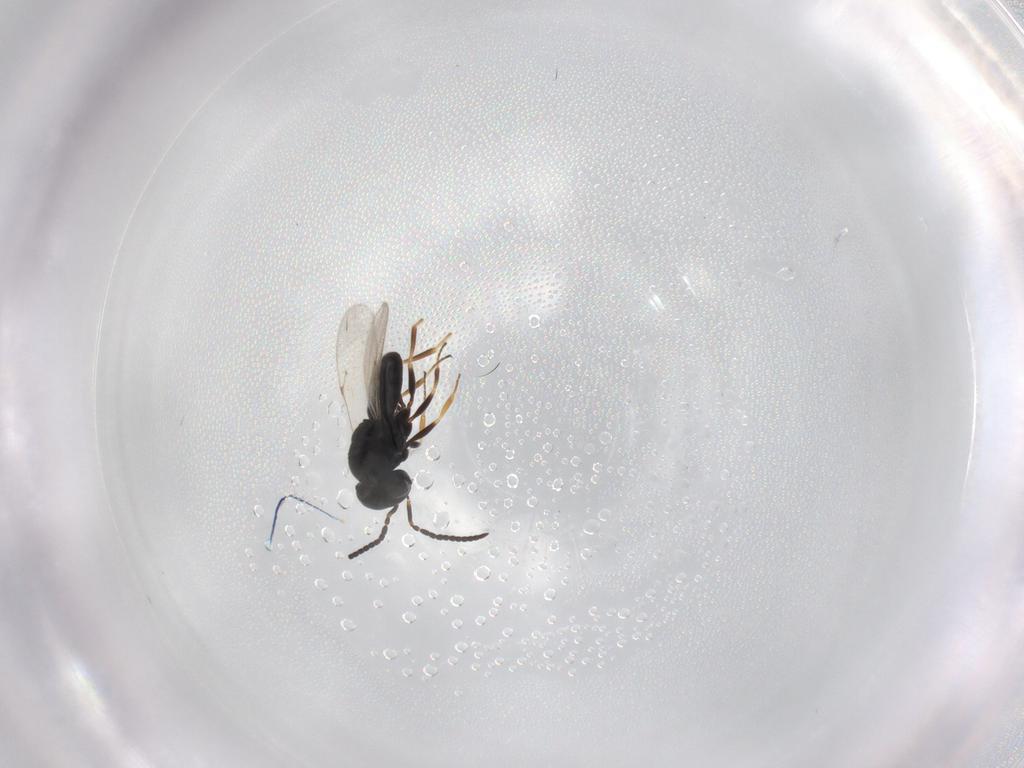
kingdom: Animalia
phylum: Arthropoda
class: Insecta
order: Hymenoptera
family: Scelionidae
